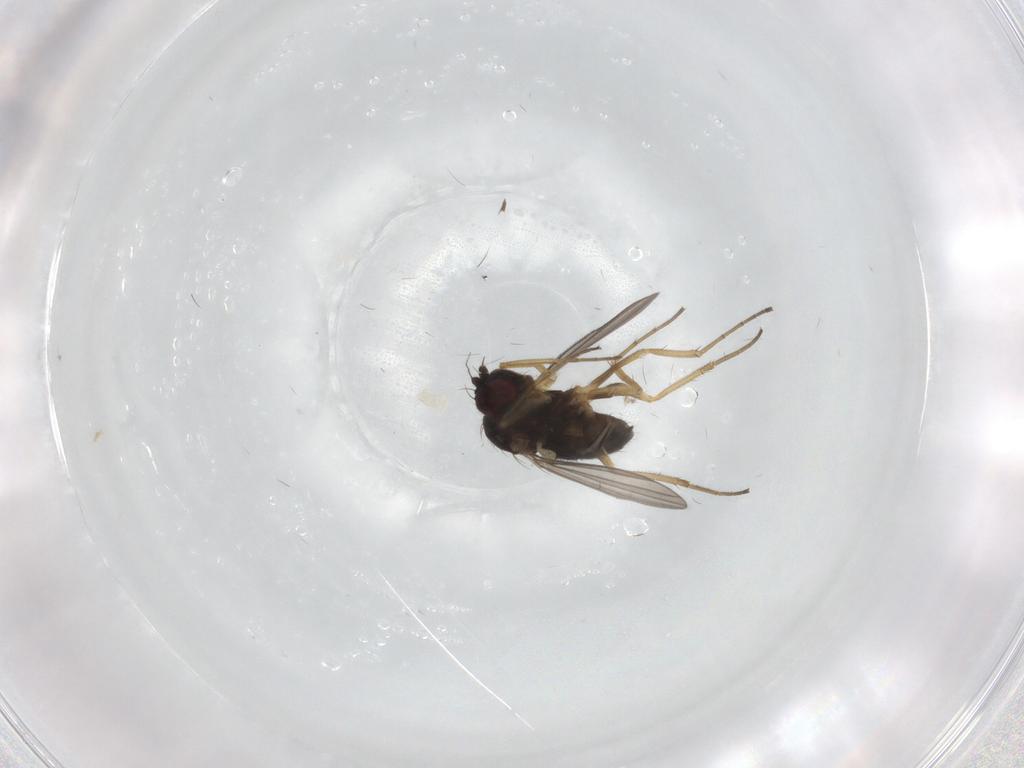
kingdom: Animalia
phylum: Arthropoda
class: Insecta
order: Diptera
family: Dolichopodidae
